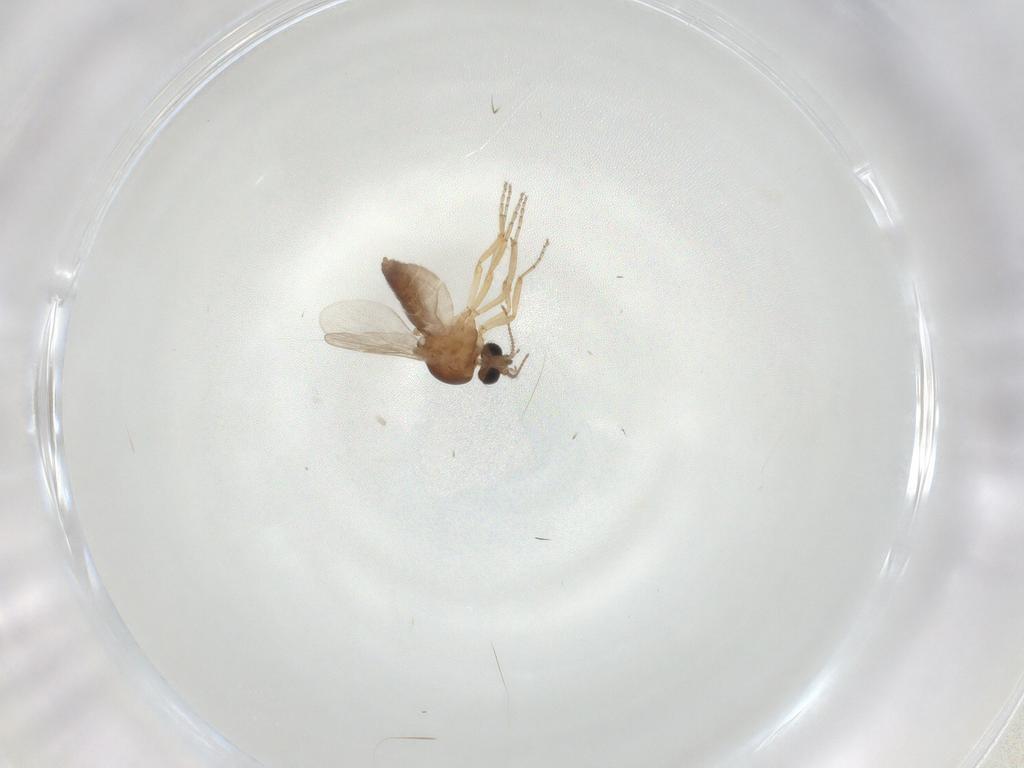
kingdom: Animalia
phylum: Arthropoda
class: Insecta
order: Diptera
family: Ceratopogonidae
